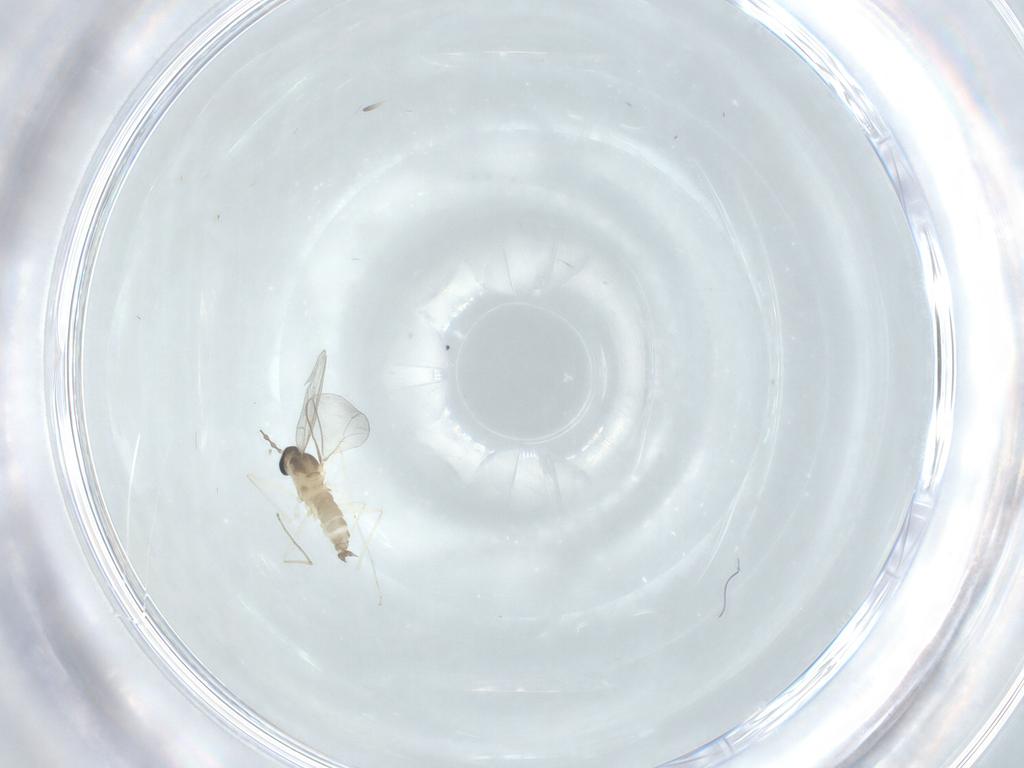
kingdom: Animalia
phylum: Arthropoda
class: Insecta
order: Diptera
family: Cecidomyiidae
